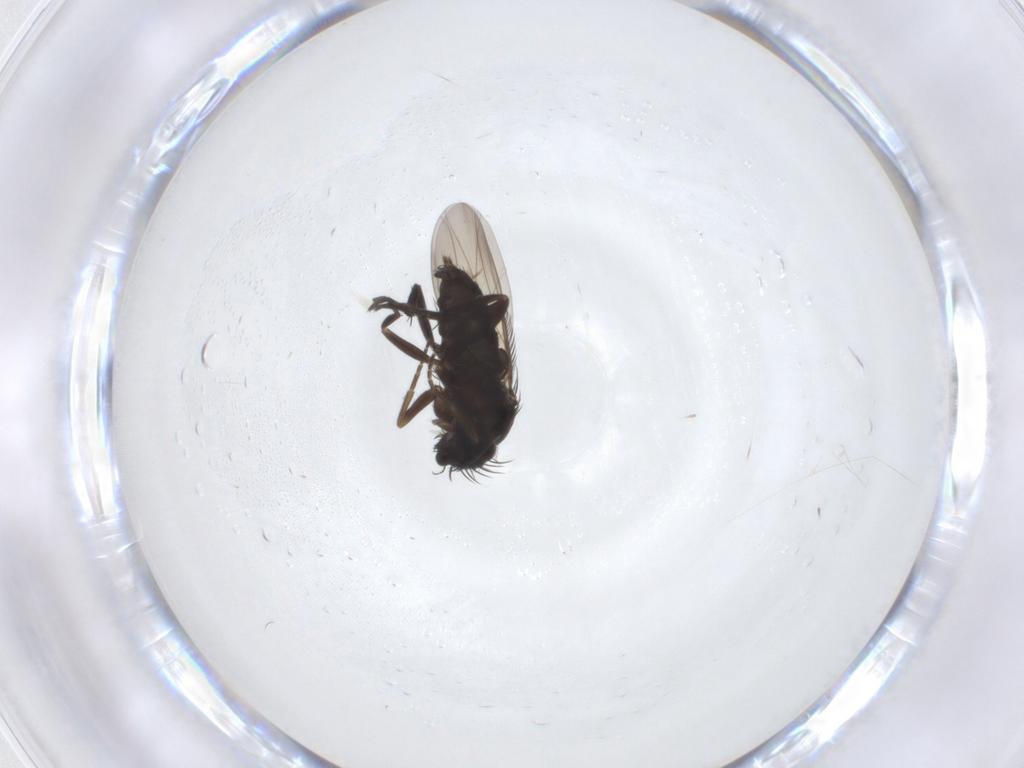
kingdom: Animalia
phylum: Arthropoda
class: Insecta
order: Diptera
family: Phoridae
